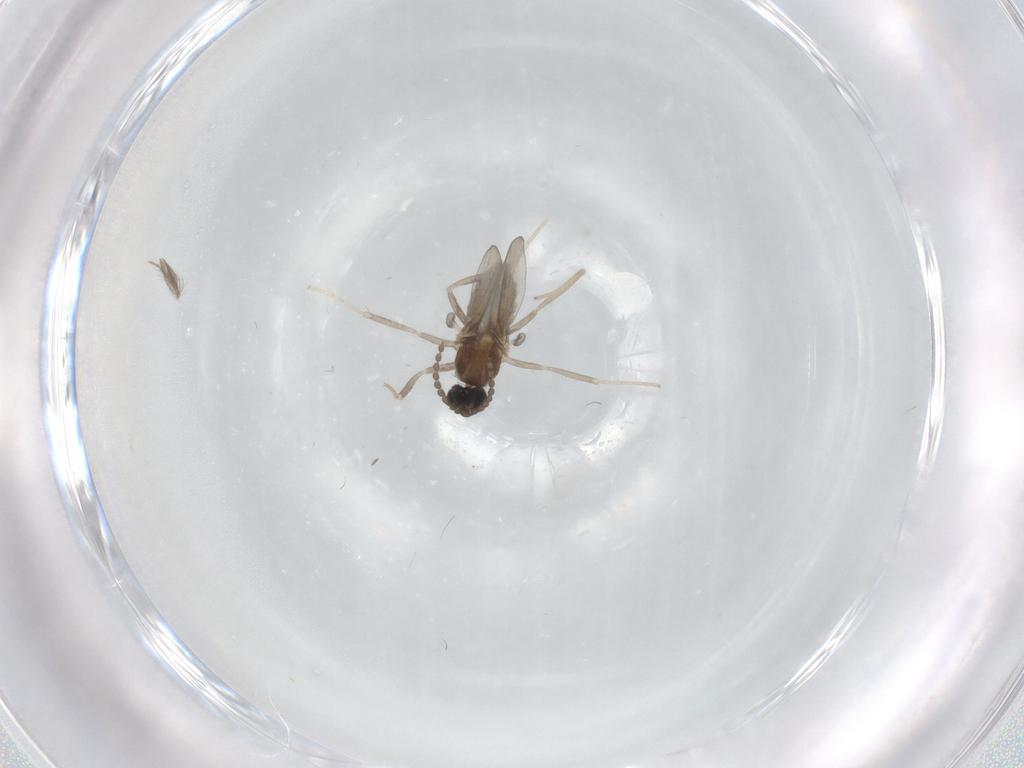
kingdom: Animalia
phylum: Arthropoda
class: Insecta
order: Diptera
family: Cecidomyiidae
